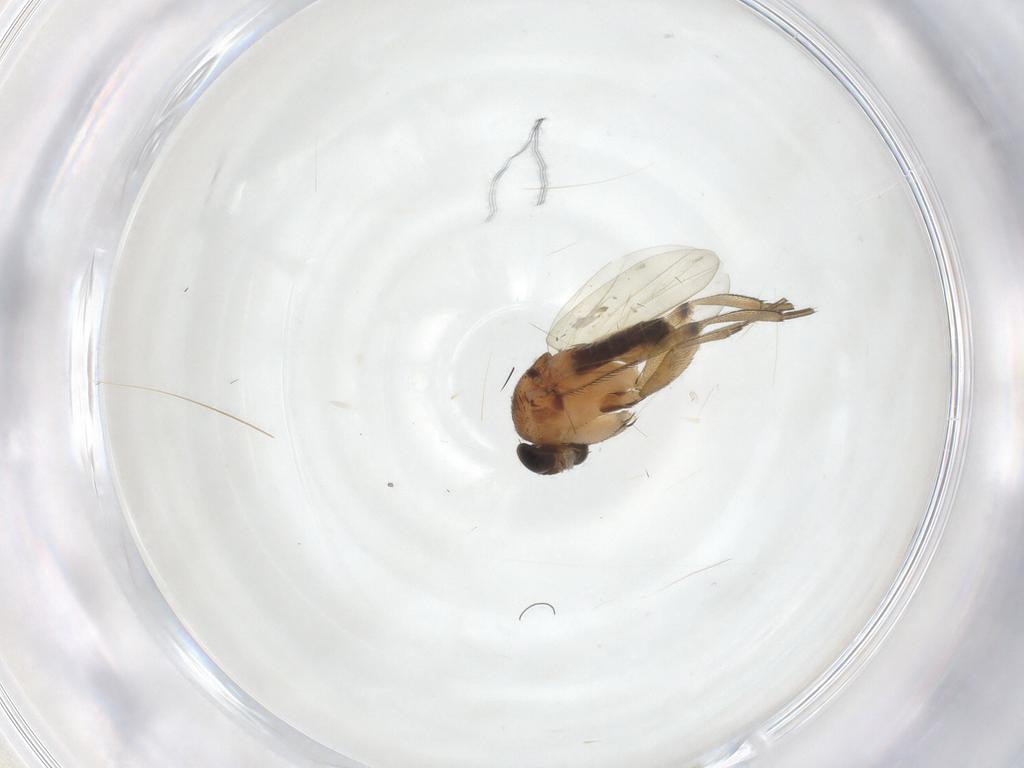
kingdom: Animalia
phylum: Arthropoda
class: Insecta
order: Diptera
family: Phoridae
